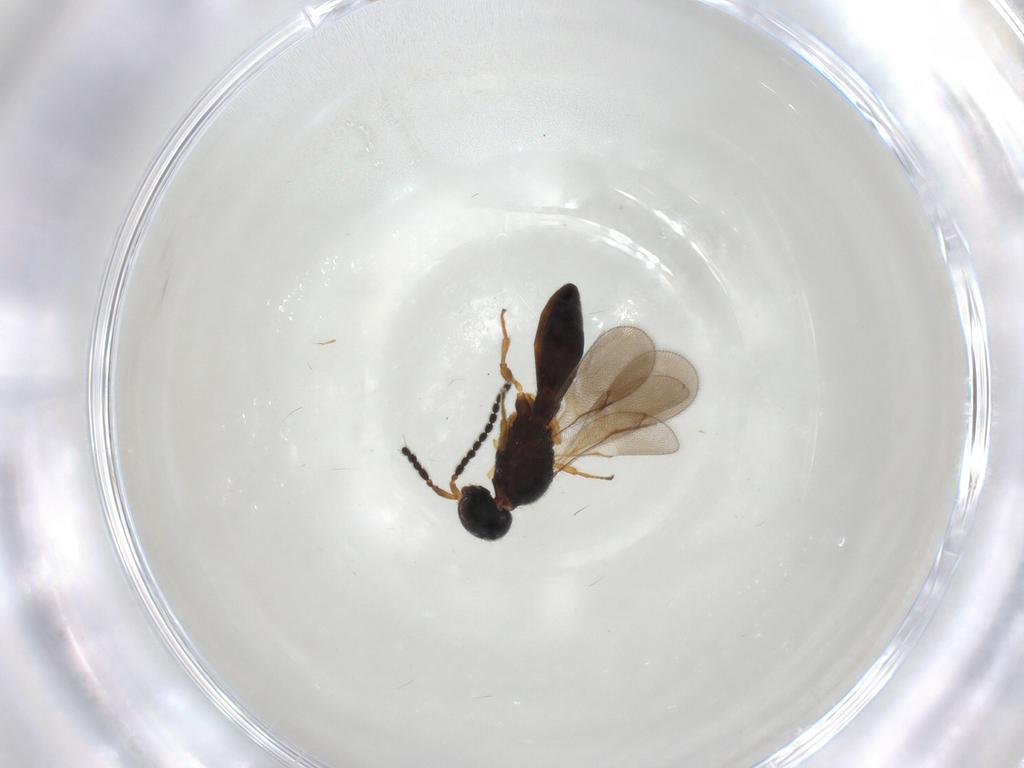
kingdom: Animalia
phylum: Arthropoda
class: Insecta
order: Hymenoptera
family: Scelionidae
